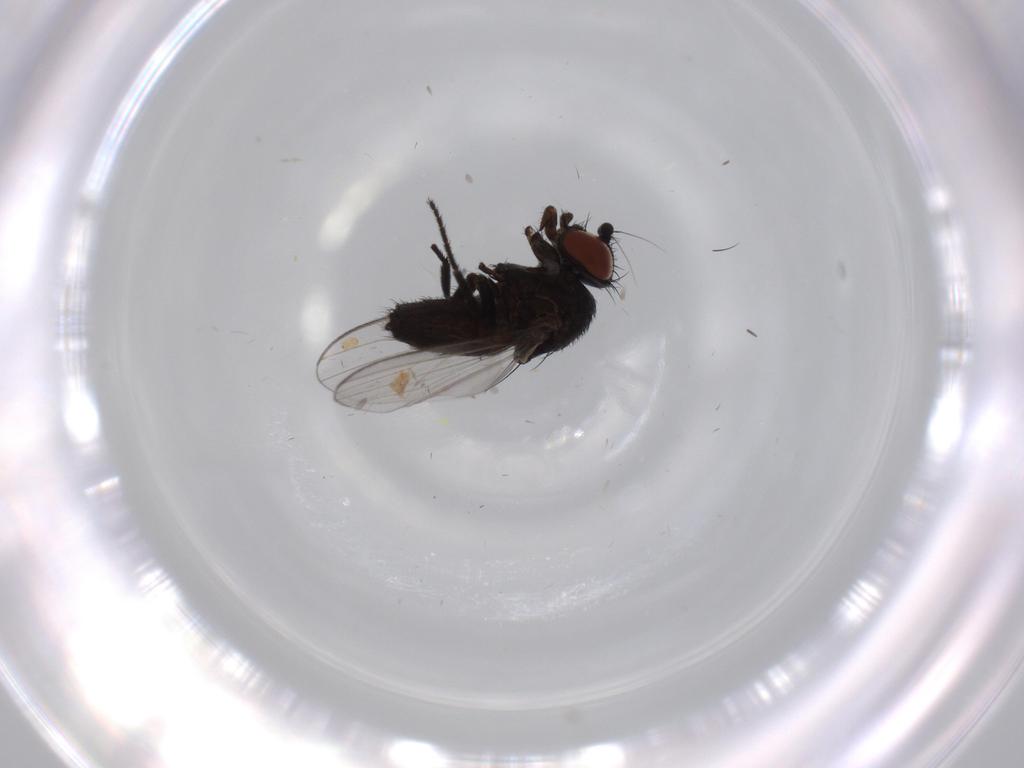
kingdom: Animalia
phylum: Arthropoda
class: Insecta
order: Diptera
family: Milichiidae
